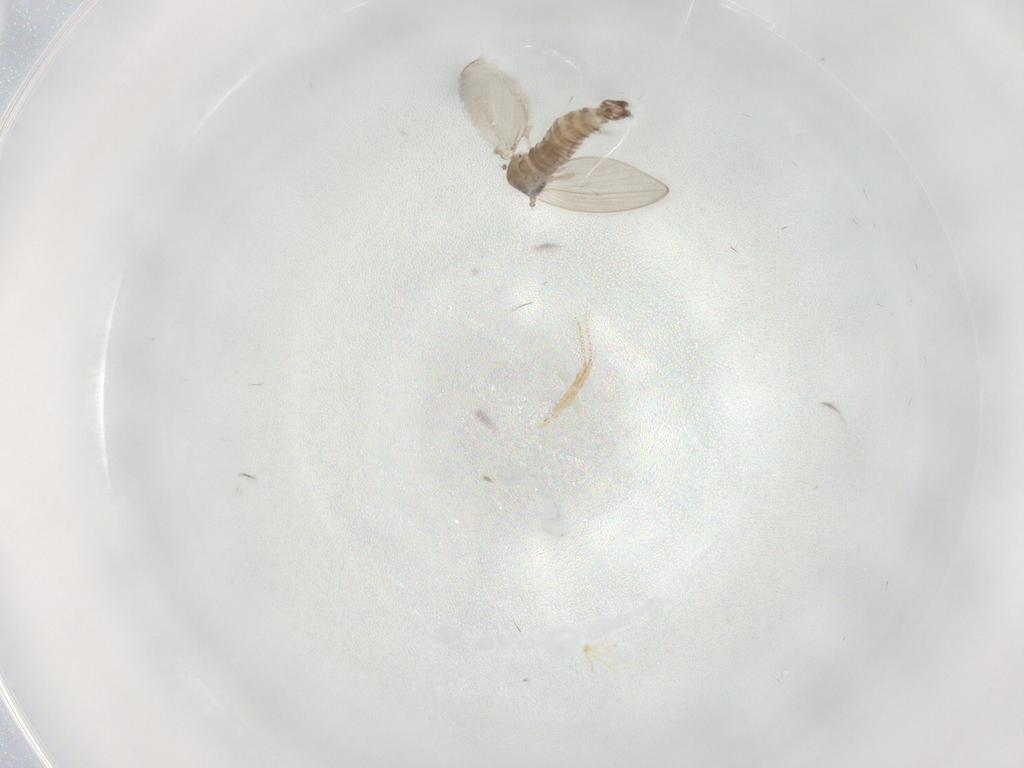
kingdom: Animalia
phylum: Arthropoda
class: Insecta
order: Diptera
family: Psychodidae
